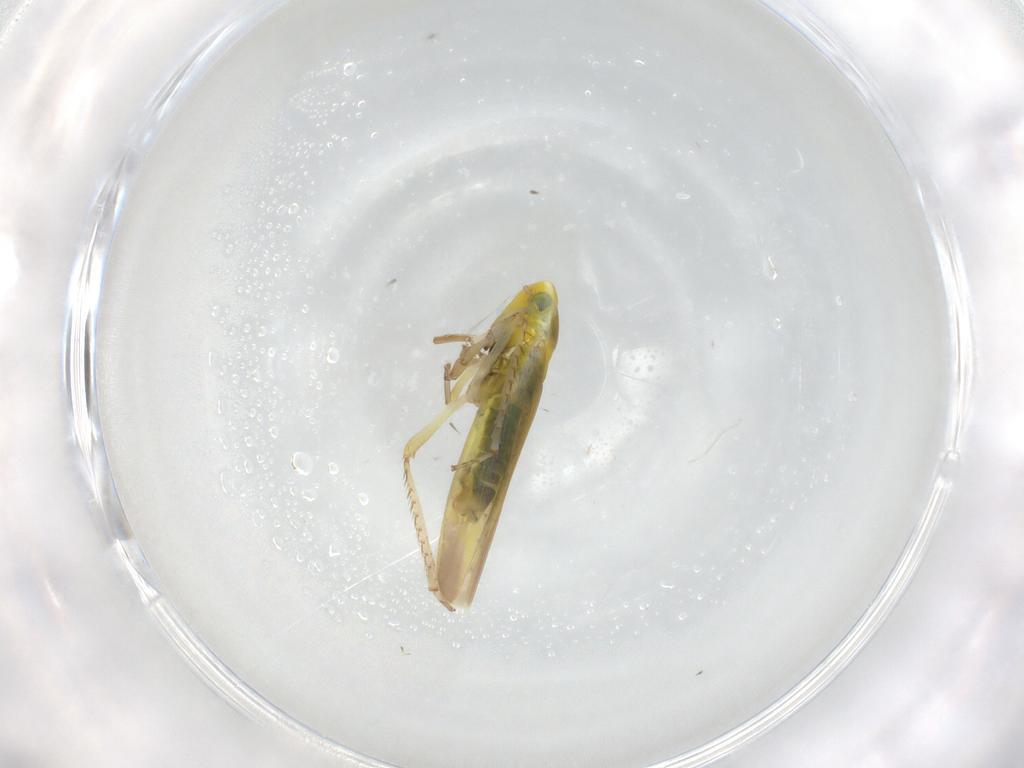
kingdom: Animalia
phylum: Arthropoda
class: Insecta
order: Hemiptera
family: Cicadellidae
